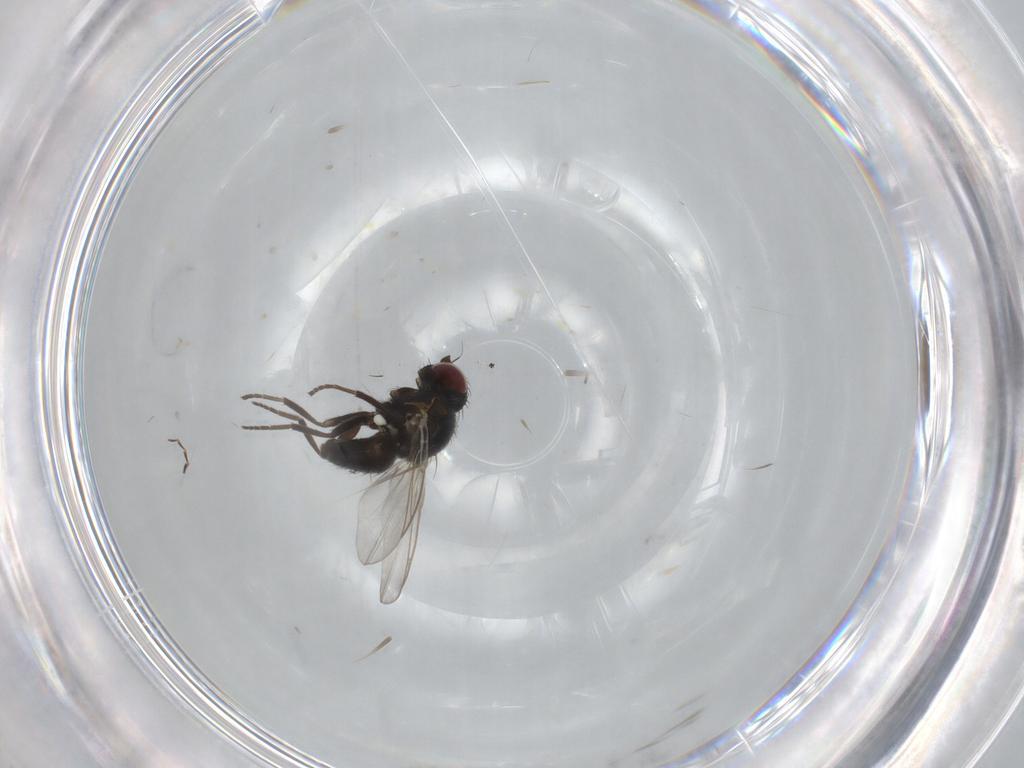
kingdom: Animalia
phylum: Arthropoda
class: Insecta
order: Diptera
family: Agromyzidae
